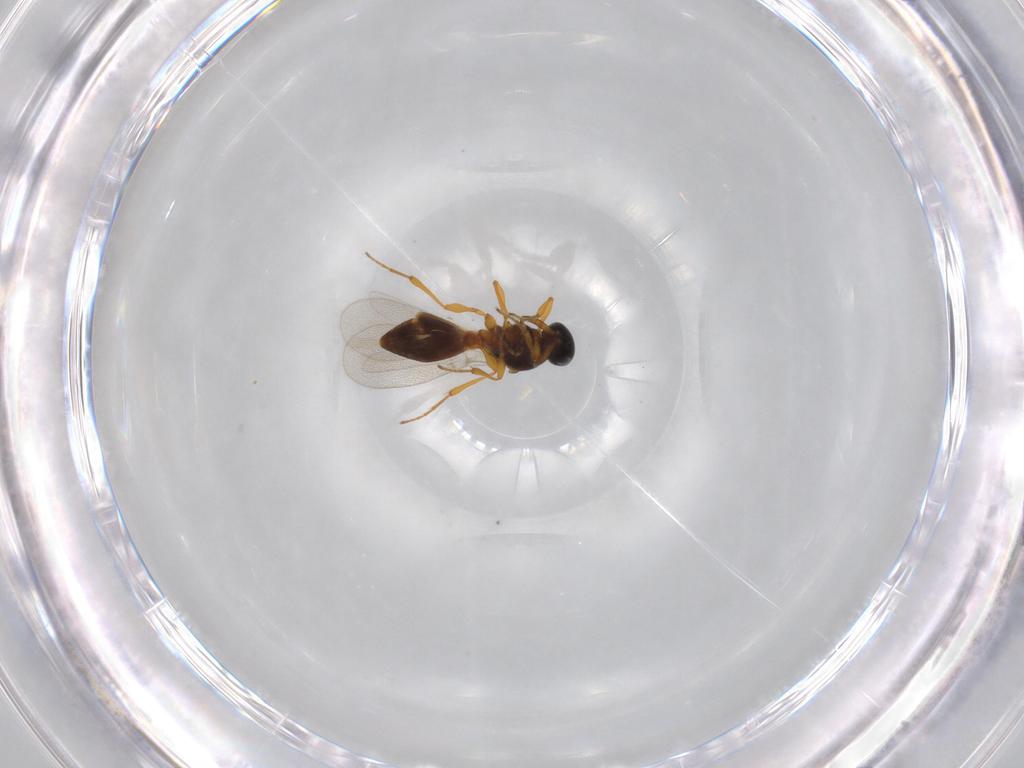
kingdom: Animalia
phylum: Arthropoda
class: Insecta
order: Hymenoptera
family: Platygastridae
